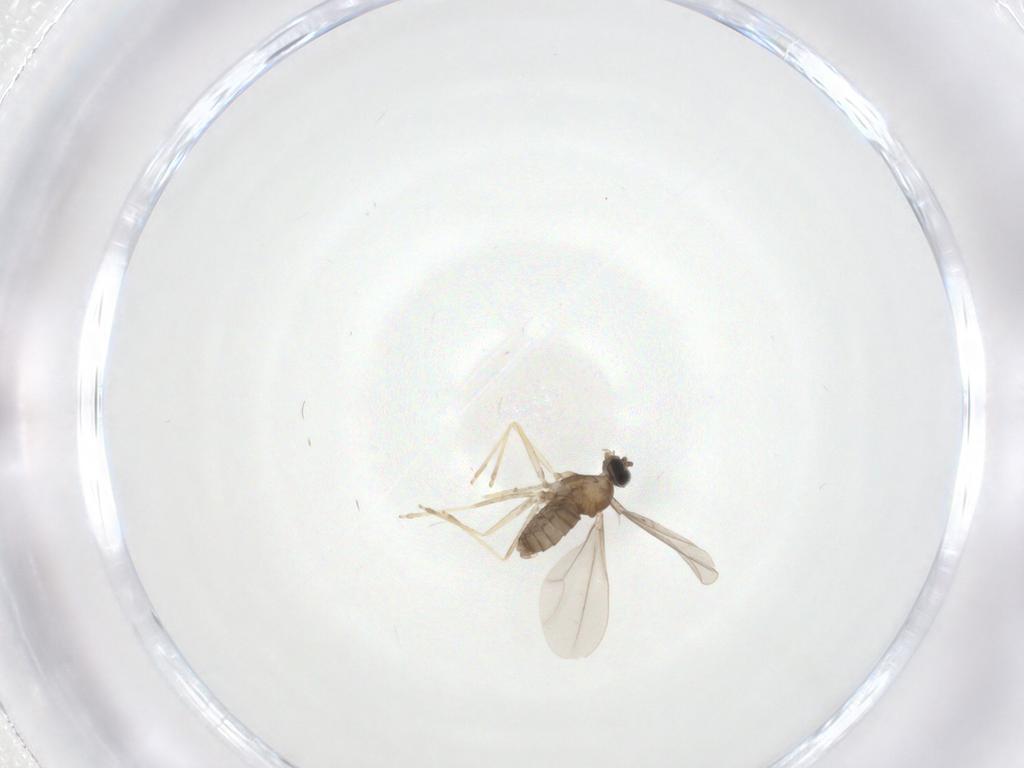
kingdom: Animalia
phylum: Arthropoda
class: Insecta
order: Diptera
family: Cecidomyiidae
